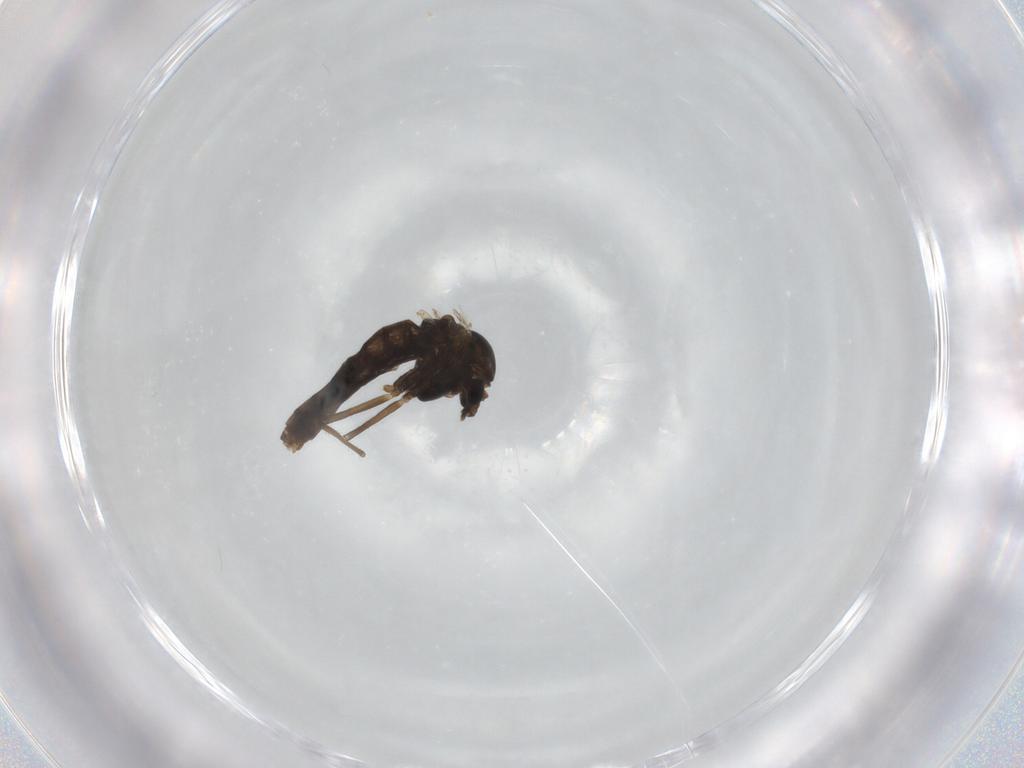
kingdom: Animalia
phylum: Arthropoda
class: Insecta
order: Diptera
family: Chironomidae
